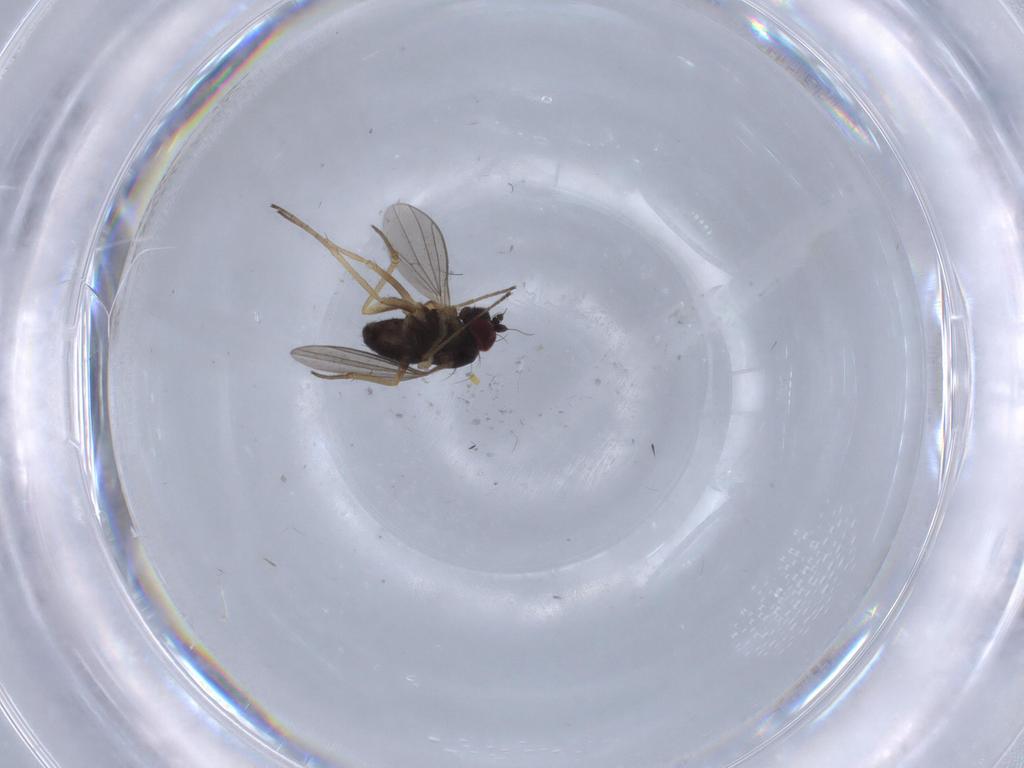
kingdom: Animalia
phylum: Arthropoda
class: Insecta
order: Diptera
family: Dolichopodidae
